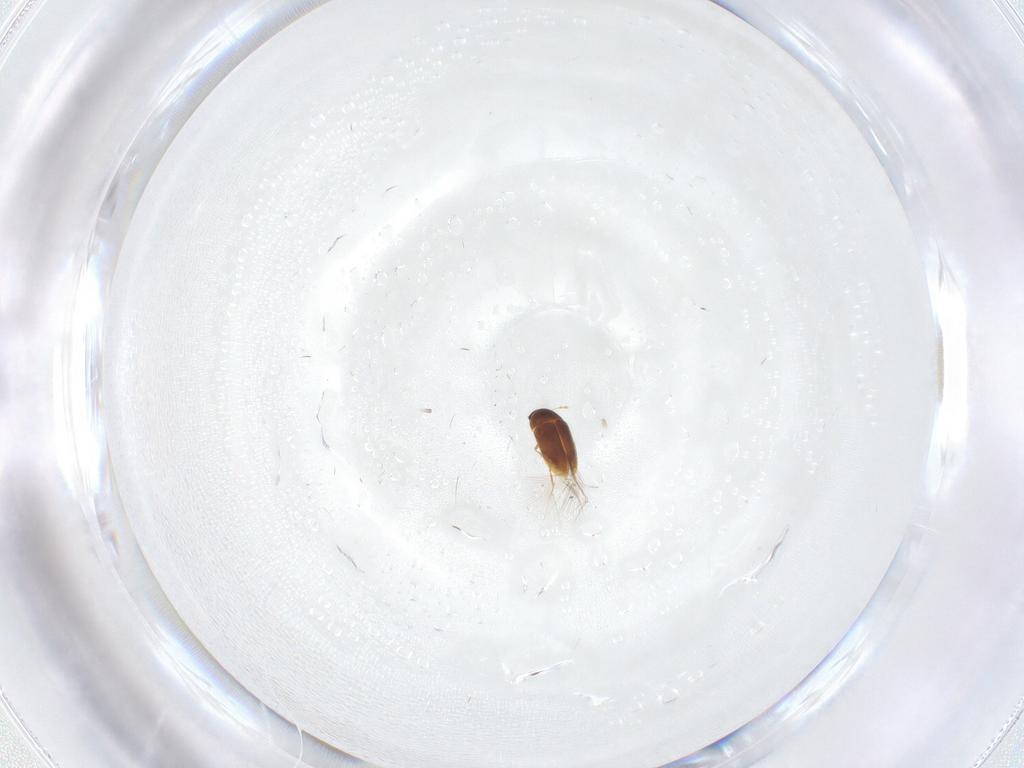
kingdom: Animalia
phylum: Arthropoda
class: Insecta
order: Coleoptera
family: Ptiliidae
